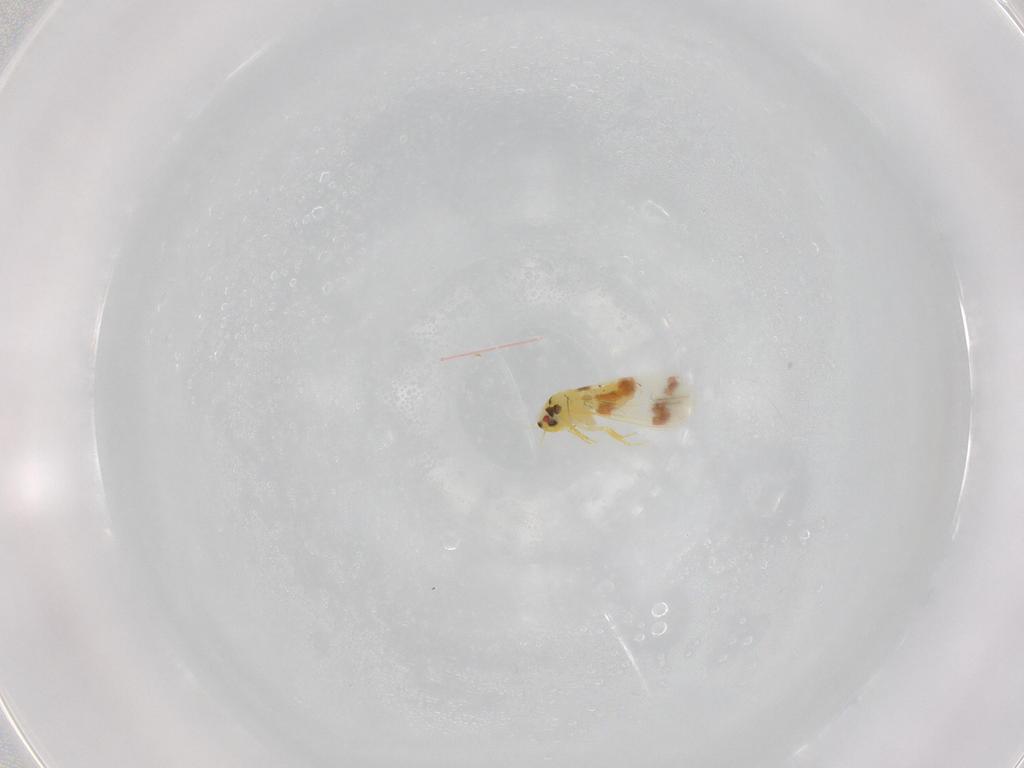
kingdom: Animalia
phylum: Arthropoda
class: Insecta
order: Hemiptera
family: Aleyrodidae
